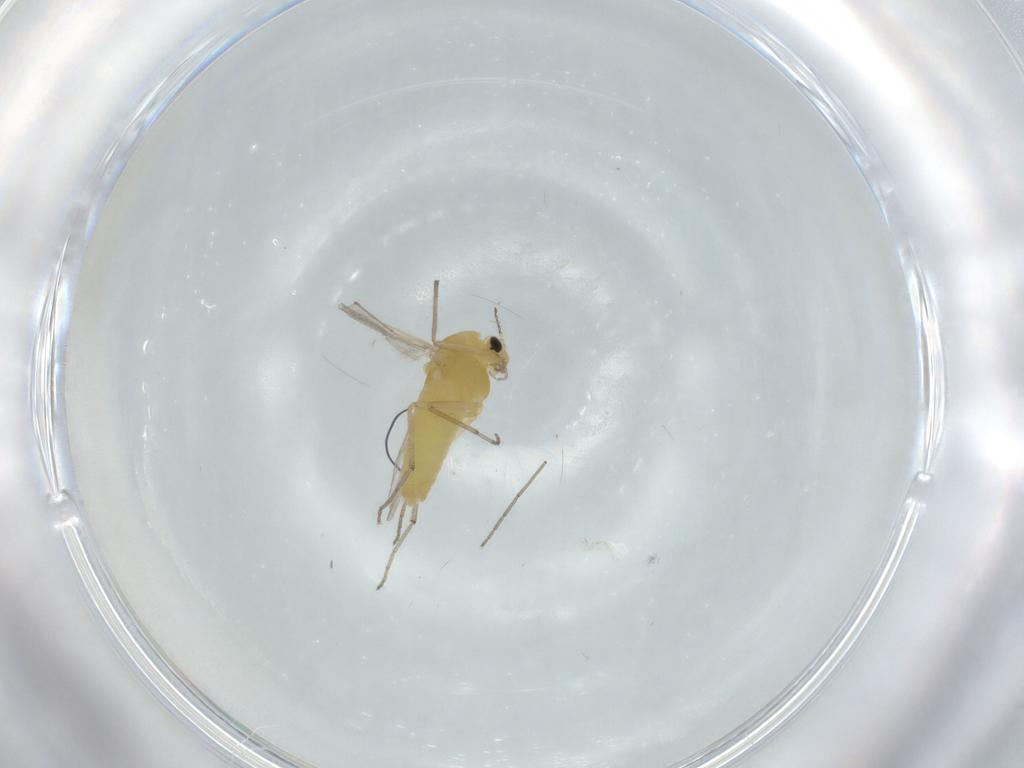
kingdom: Animalia
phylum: Arthropoda
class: Insecta
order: Diptera
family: Chironomidae
